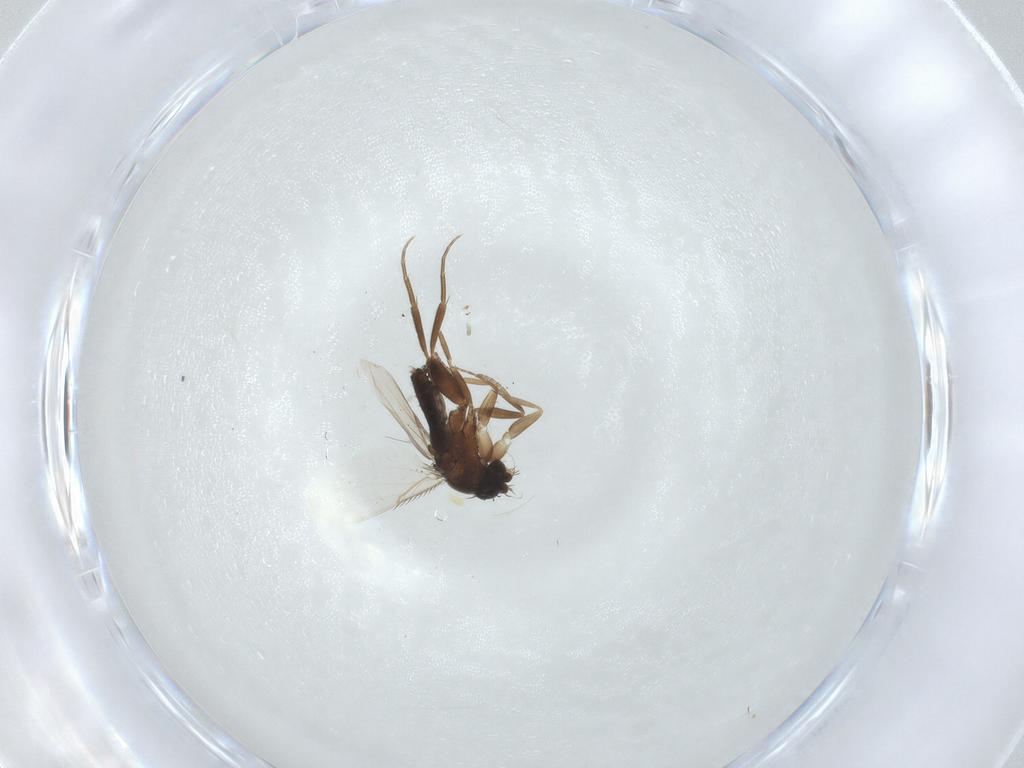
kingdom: Animalia
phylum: Arthropoda
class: Insecta
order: Diptera
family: Phoridae
